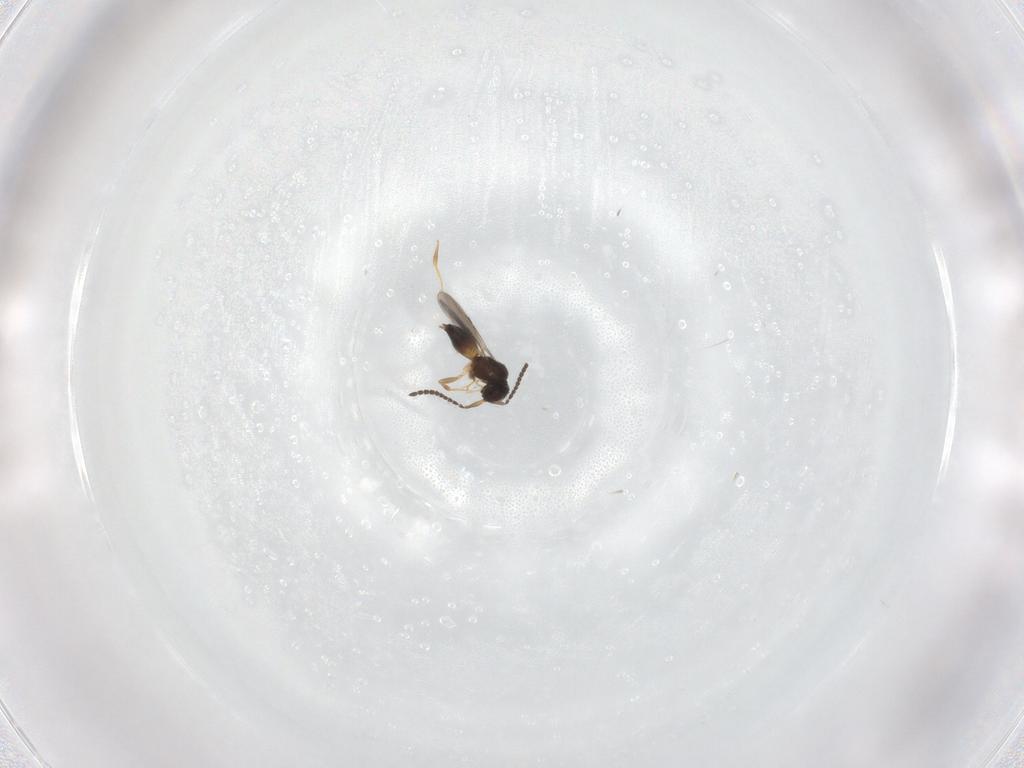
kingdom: Animalia
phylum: Arthropoda
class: Insecta
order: Hymenoptera
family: Ceraphronidae
